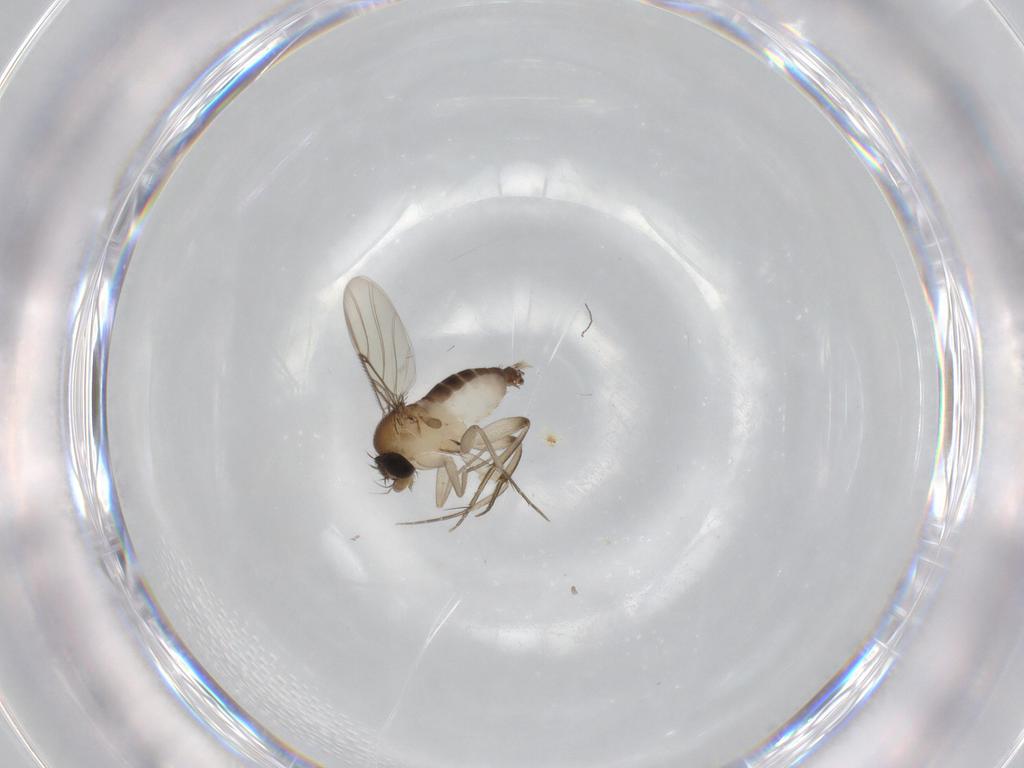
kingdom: Animalia
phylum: Arthropoda
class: Insecta
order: Diptera
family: Phoridae
